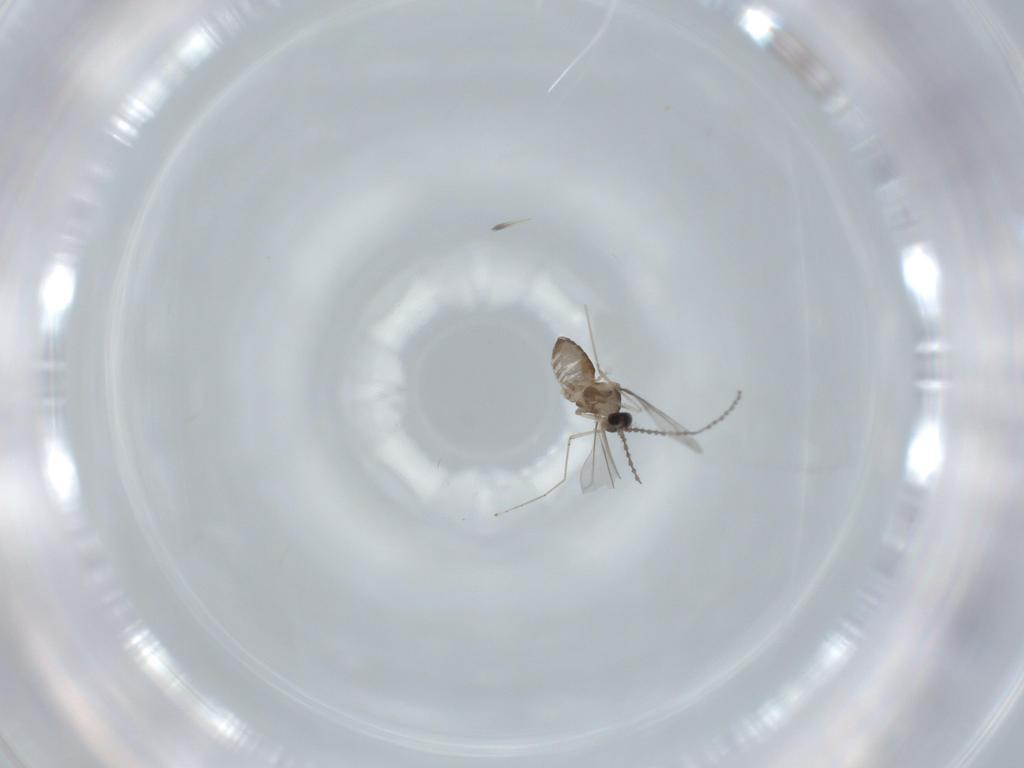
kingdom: Animalia
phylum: Arthropoda
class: Insecta
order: Diptera
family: Cecidomyiidae
